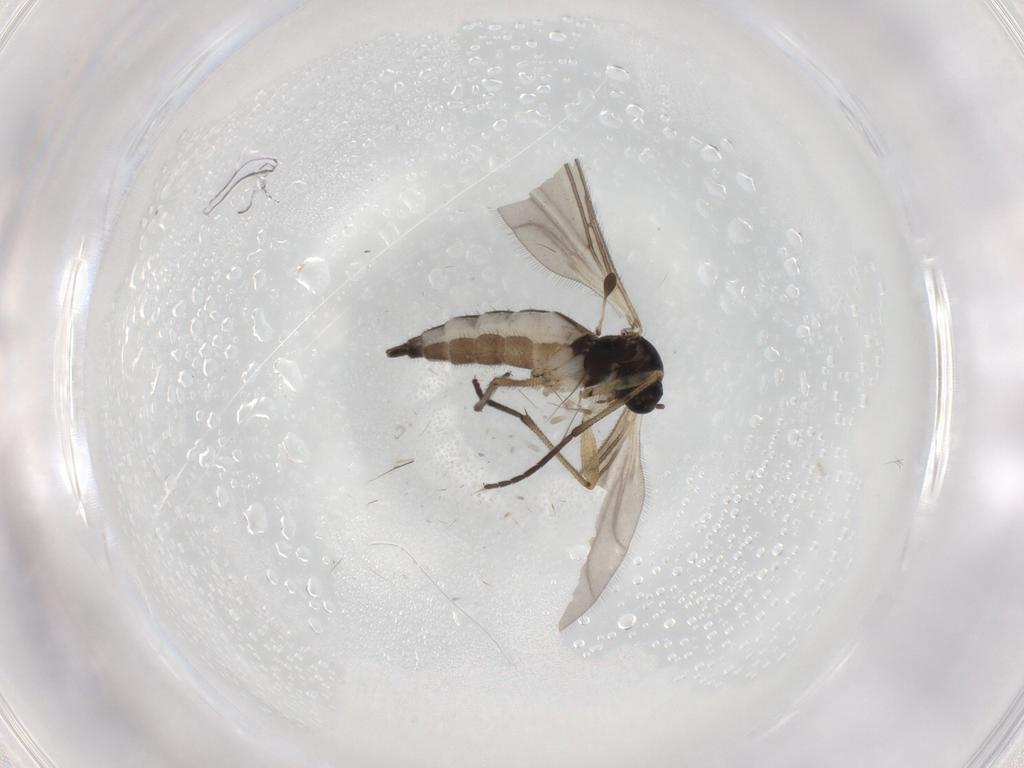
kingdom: Animalia
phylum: Arthropoda
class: Insecta
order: Diptera
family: Sciaridae
